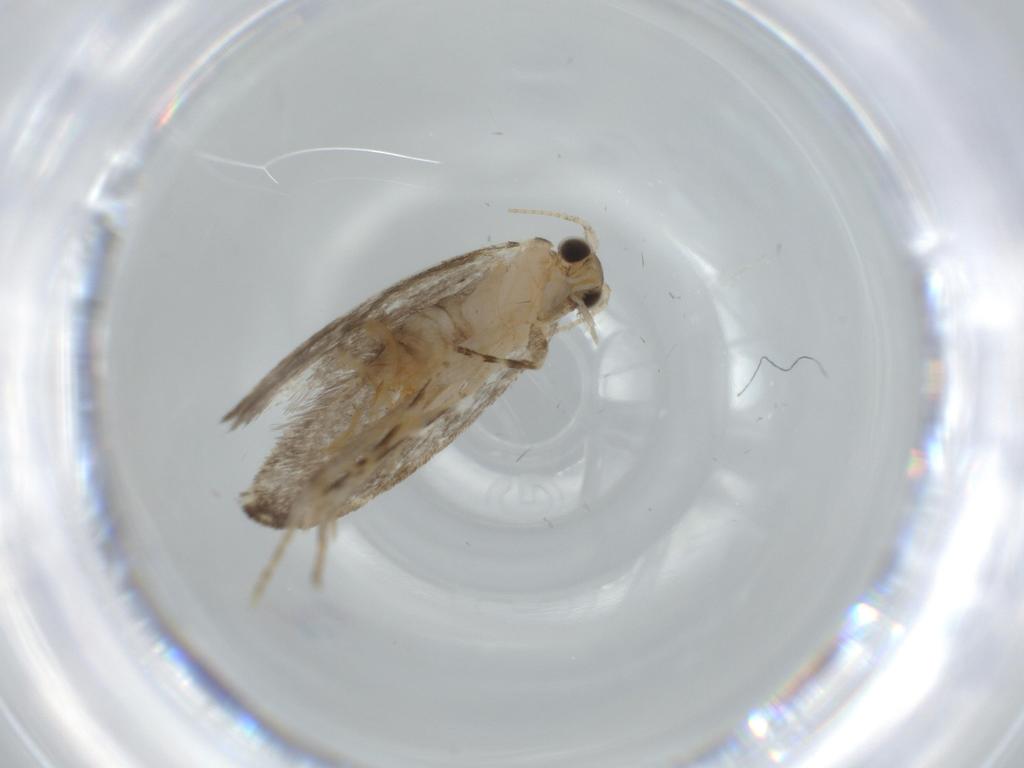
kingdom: Animalia
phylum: Arthropoda
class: Insecta
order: Lepidoptera
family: Tineidae
